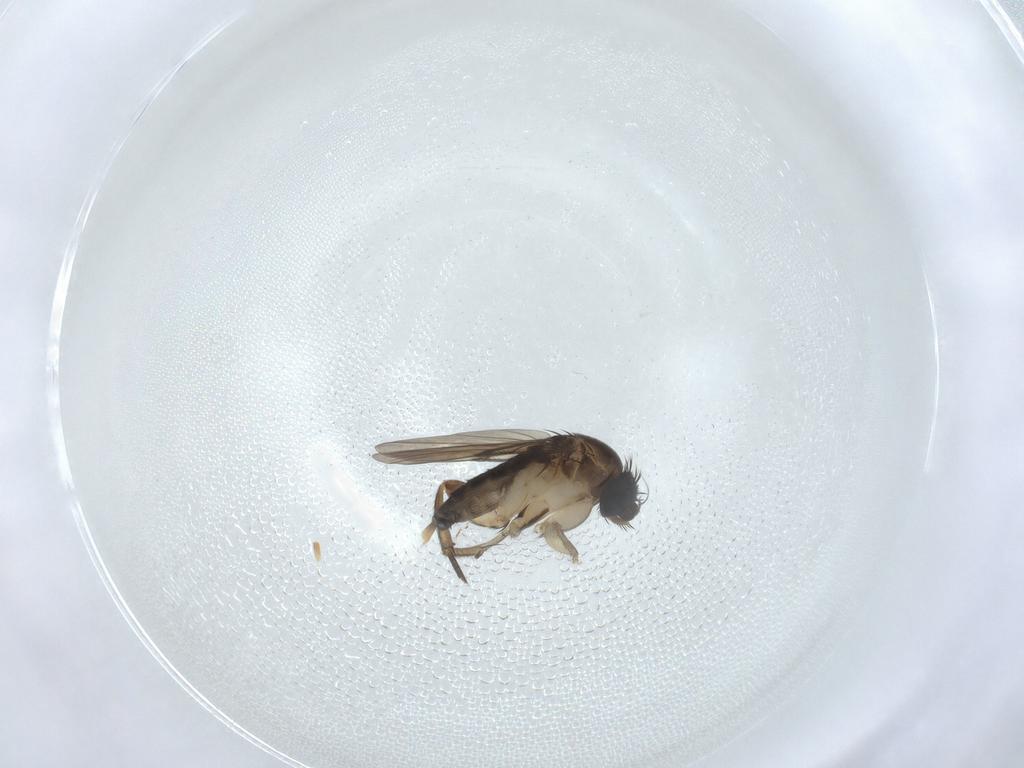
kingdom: Animalia
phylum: Arthropoda
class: Insecta
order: Diptera
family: Phoridae
